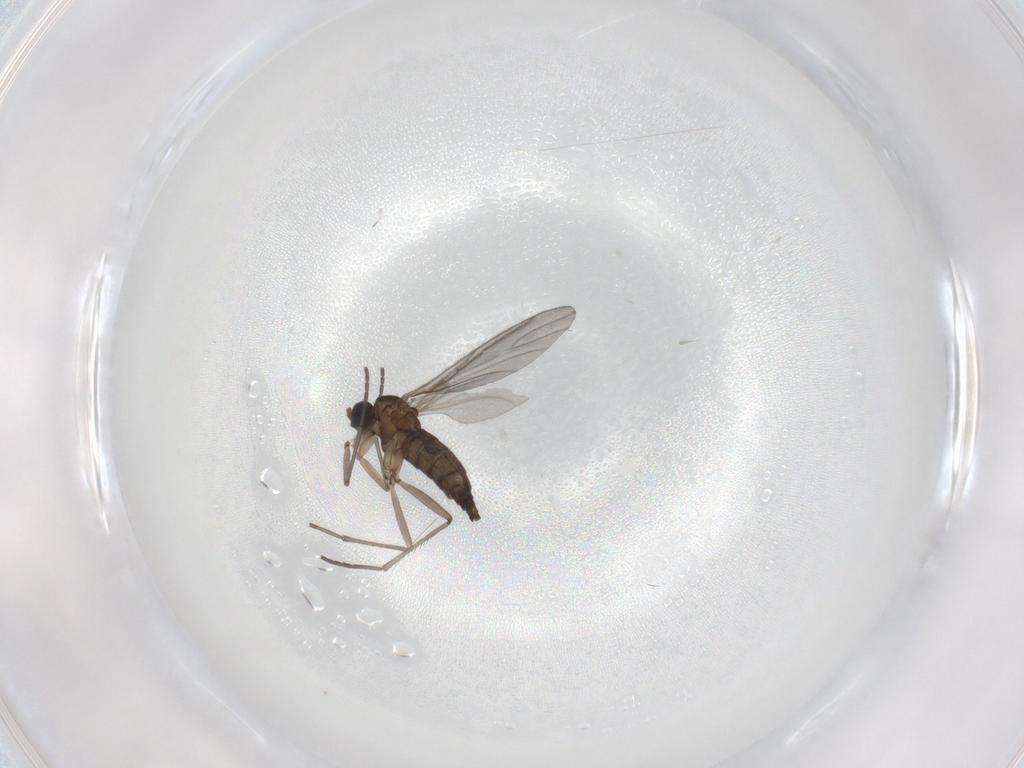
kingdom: Animalia
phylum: Arthropoda
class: Insecta
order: Diptera
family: Sciaridae
